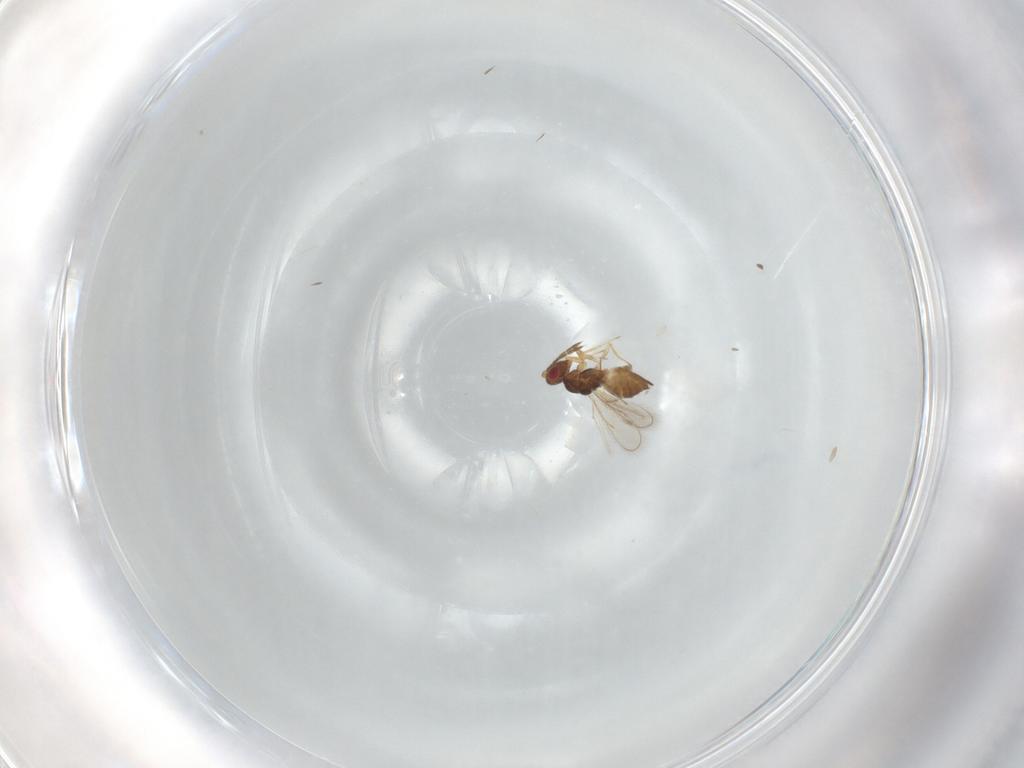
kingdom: Animalia
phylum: Arthropoda
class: Insecta
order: Hymenoptera
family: Eulophidae
